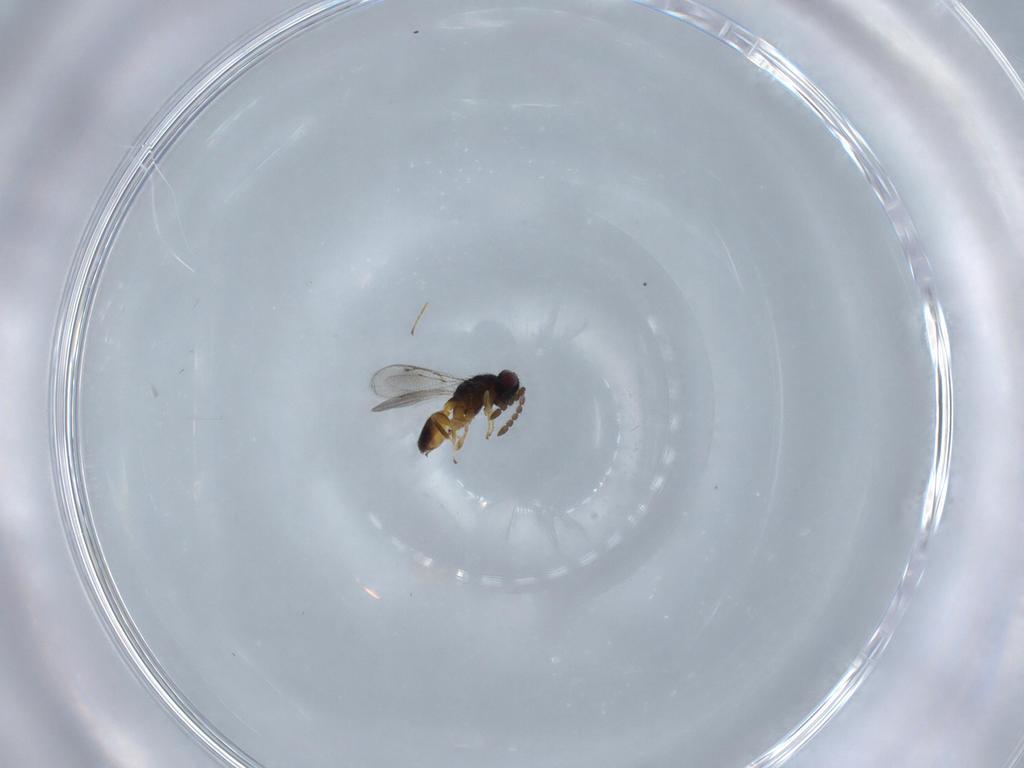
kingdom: Animalia
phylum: Arthropoda
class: Insecta
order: Hymenoptera
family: Moranilidae
